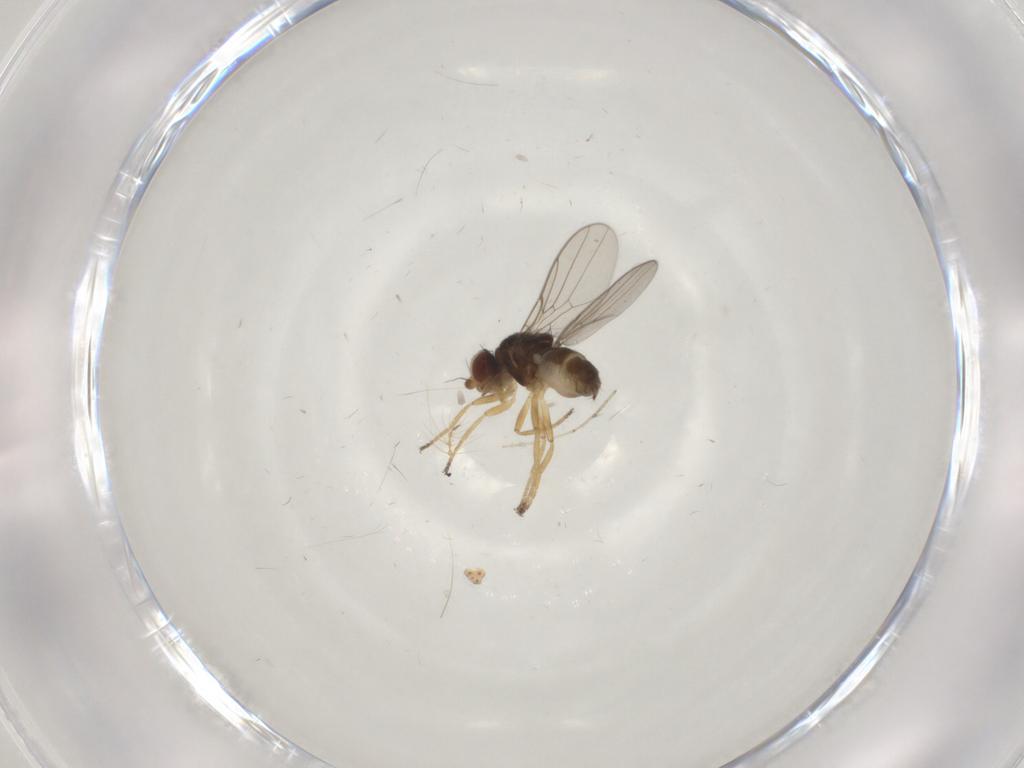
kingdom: Animalia
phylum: Arthropoda
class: Insecta
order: Diptera
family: Chloropidae
